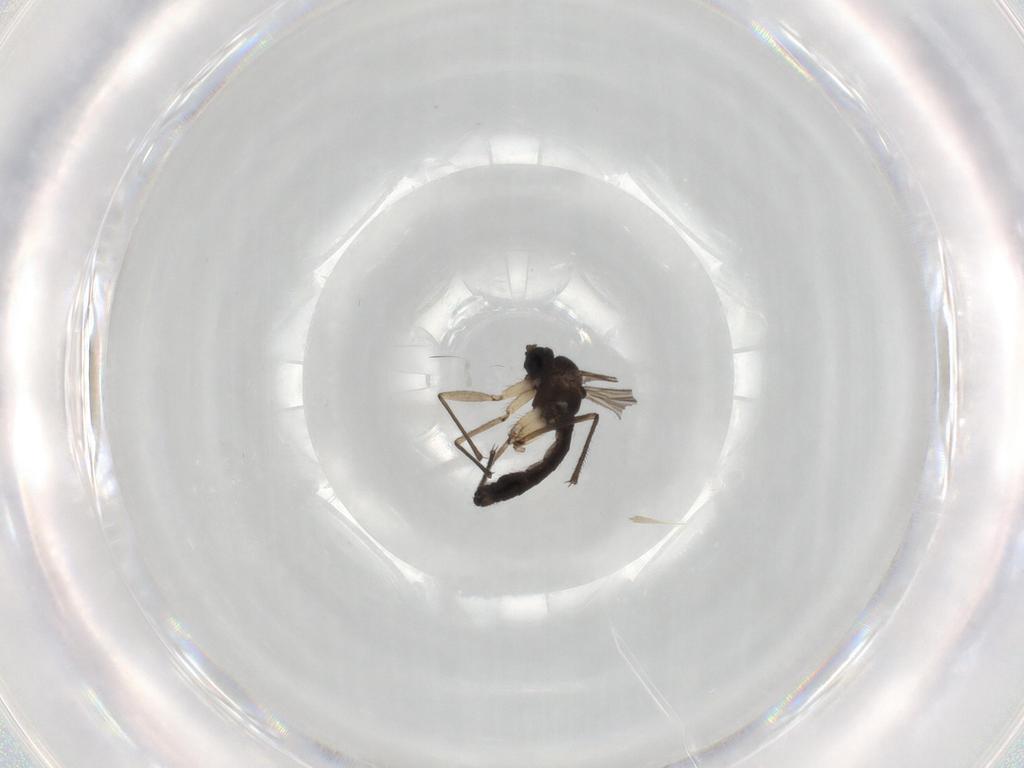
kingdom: Animalia
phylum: Arthropoda
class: Insecta
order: Diptera
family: Sciaridae
